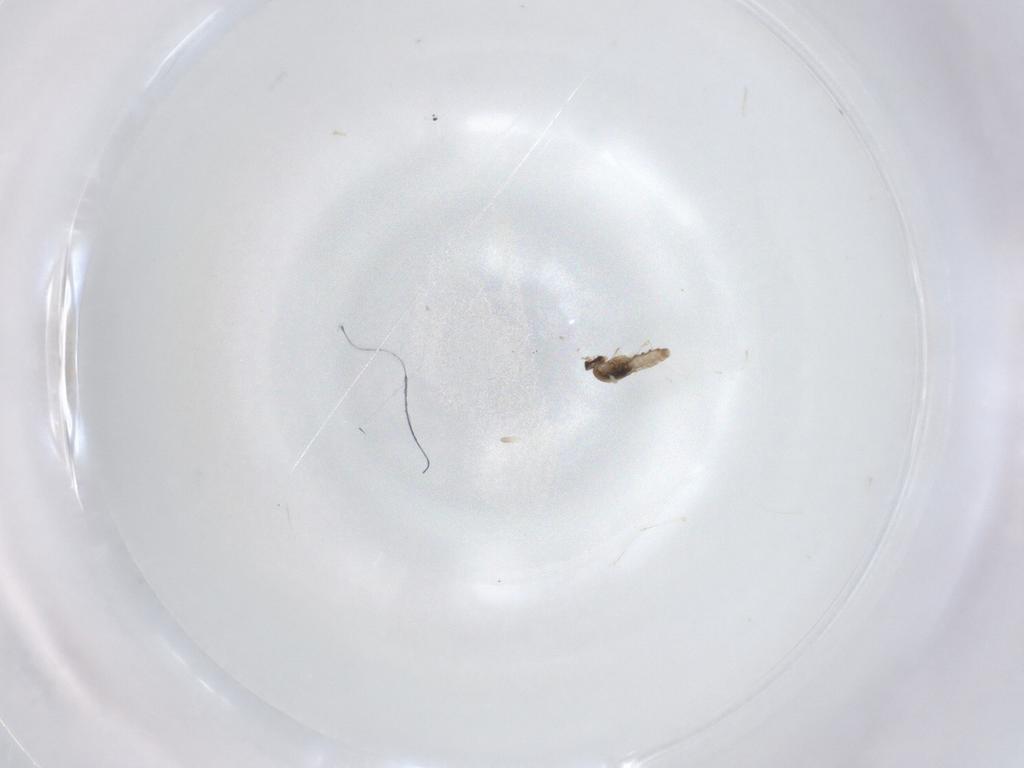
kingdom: Animalia
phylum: Arthropoda
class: Insecta
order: Diptera
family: Cecidomyiidae
